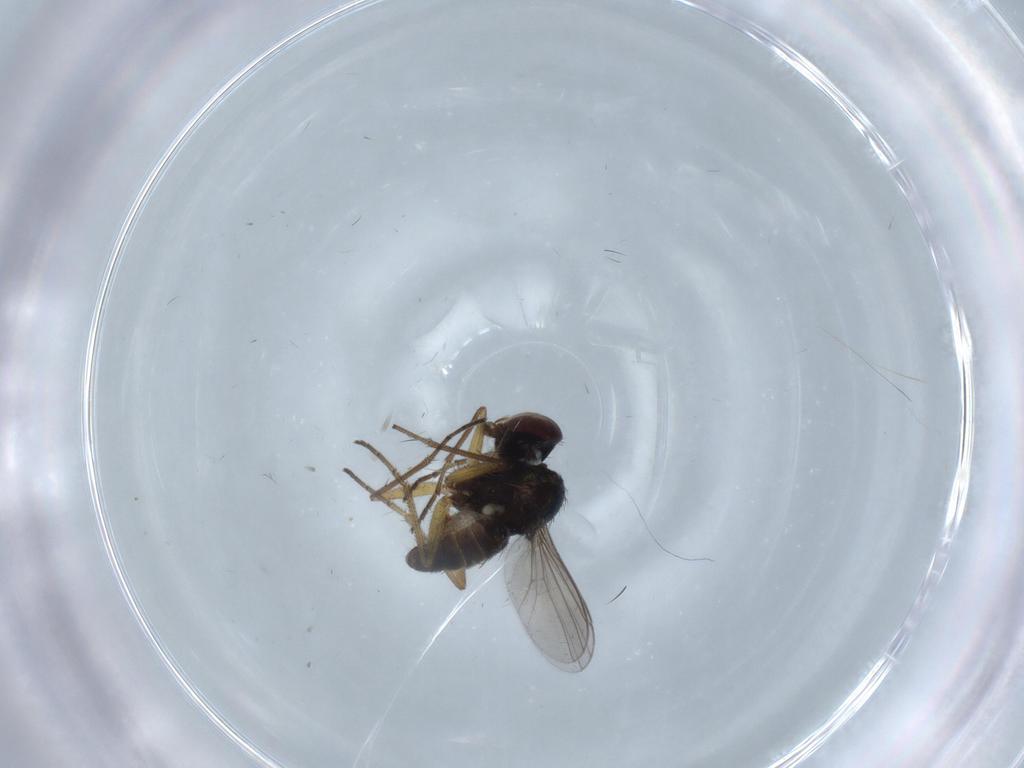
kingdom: Animalia
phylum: Arthropoda
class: Insecta
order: Diptera
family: Dolichopodidae
